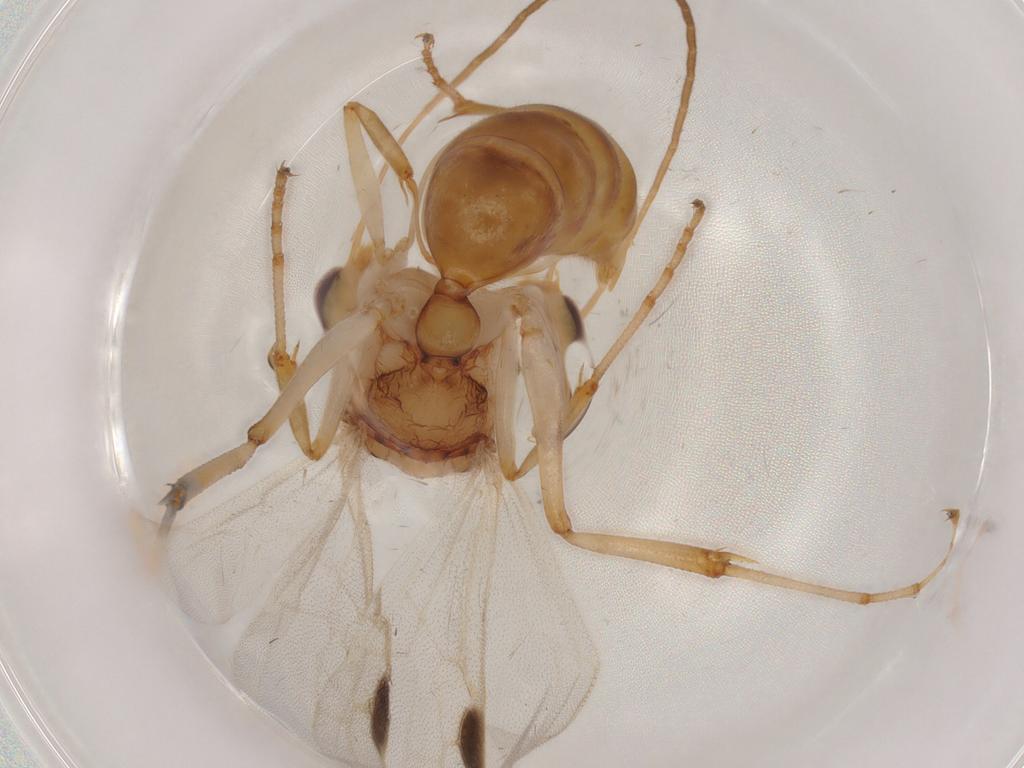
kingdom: Animalia
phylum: Arthropoda
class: Insecta
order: Hymenoptera
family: Formicidae
